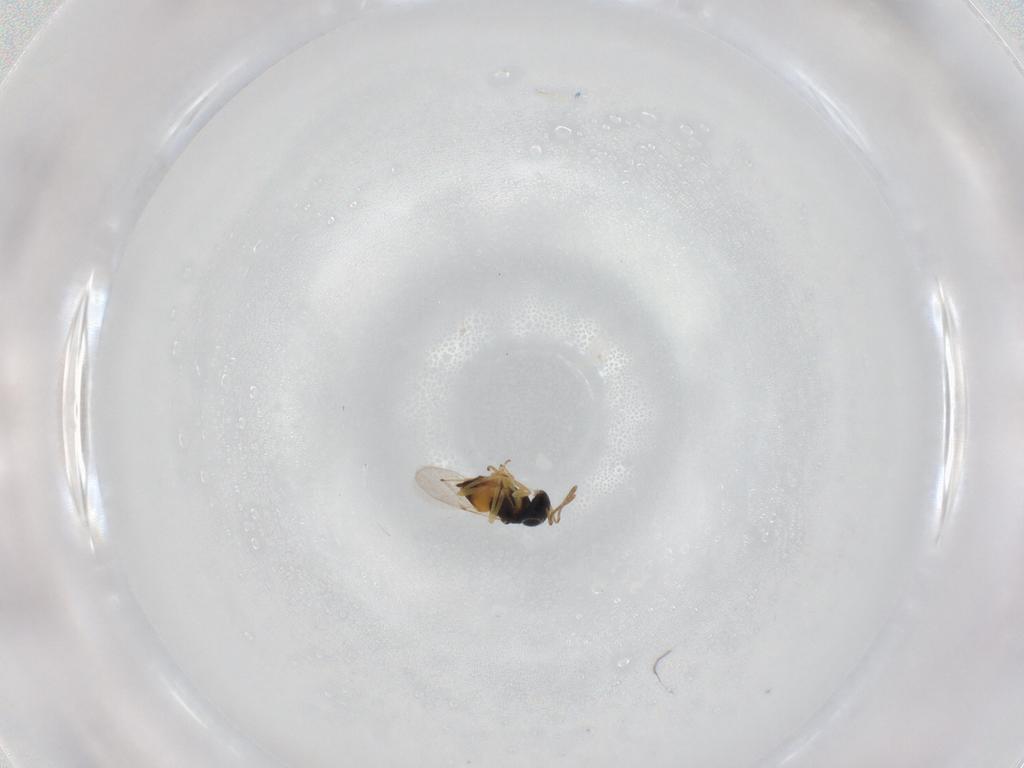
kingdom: Animalia
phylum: Arthropoda
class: Insecta
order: Hymenoptera
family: Encyrtidae
